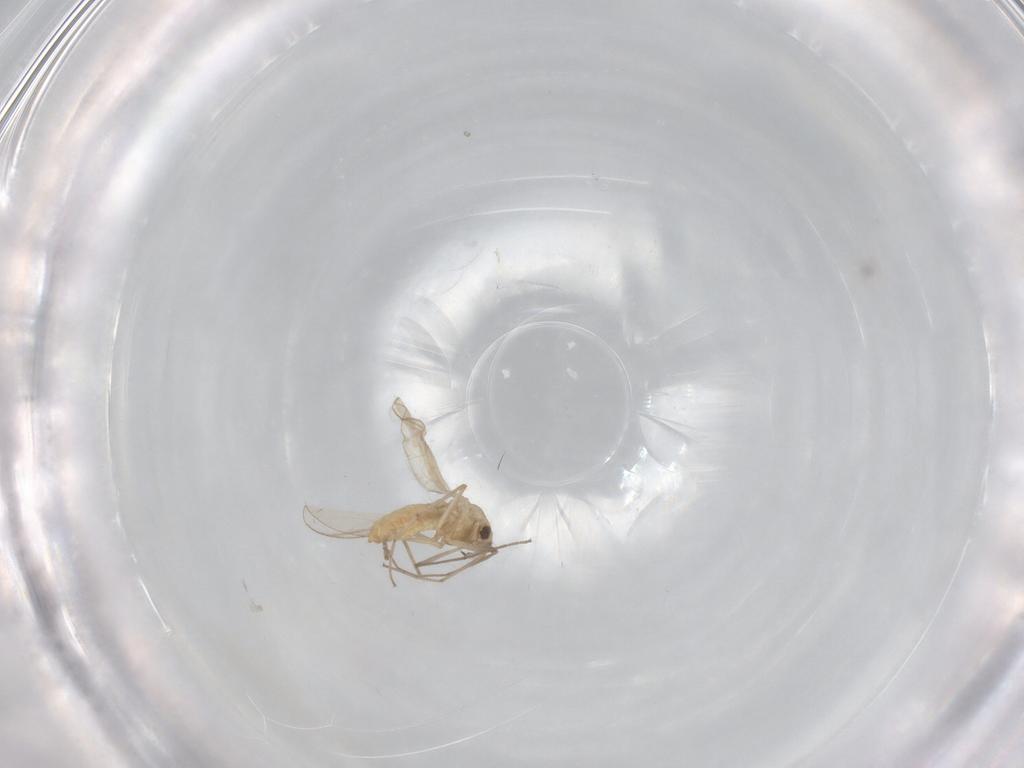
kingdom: Animalia
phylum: Arthropoda
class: Insecta
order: Diptera
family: Chironomidae
